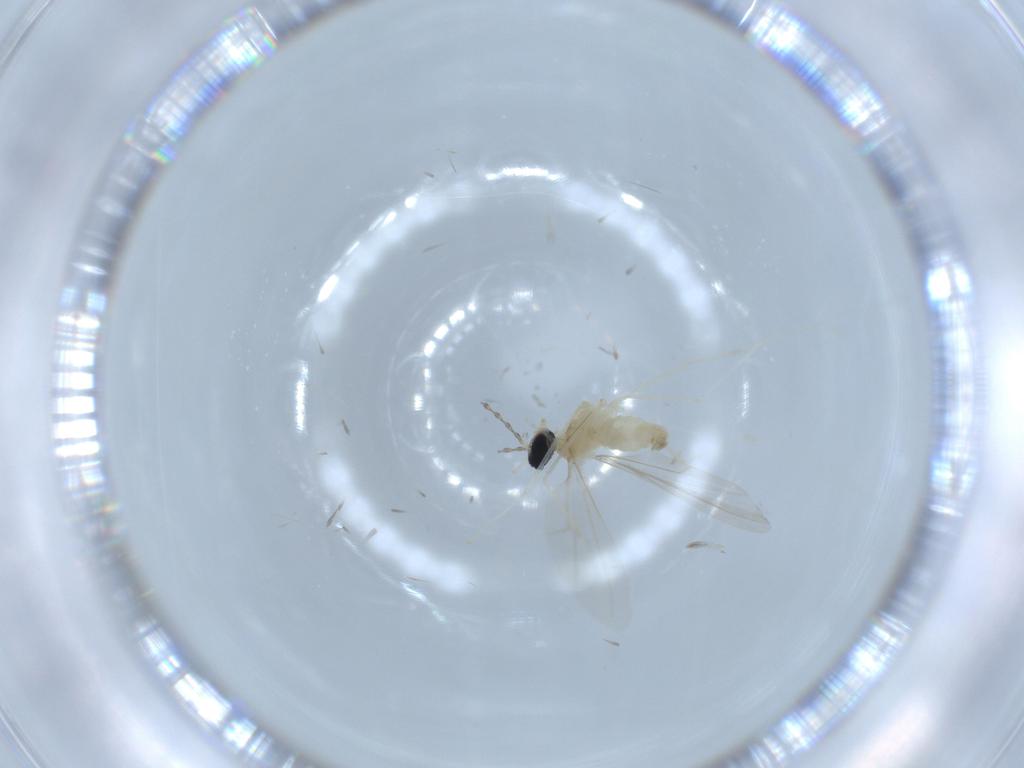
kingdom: Animalia
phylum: Arthropoda
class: Insecta
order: Diptera
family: Cecidomyiidae
